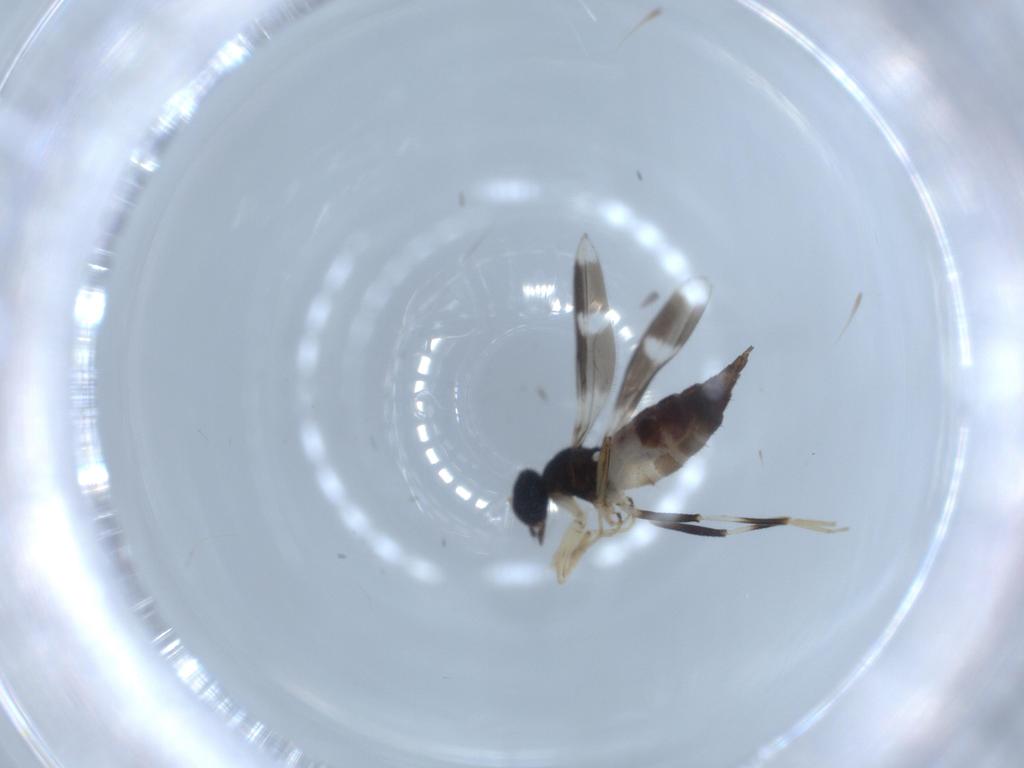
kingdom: Animalia
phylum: Arthropoda
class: Insecta
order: Diptera
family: Hybotidae
